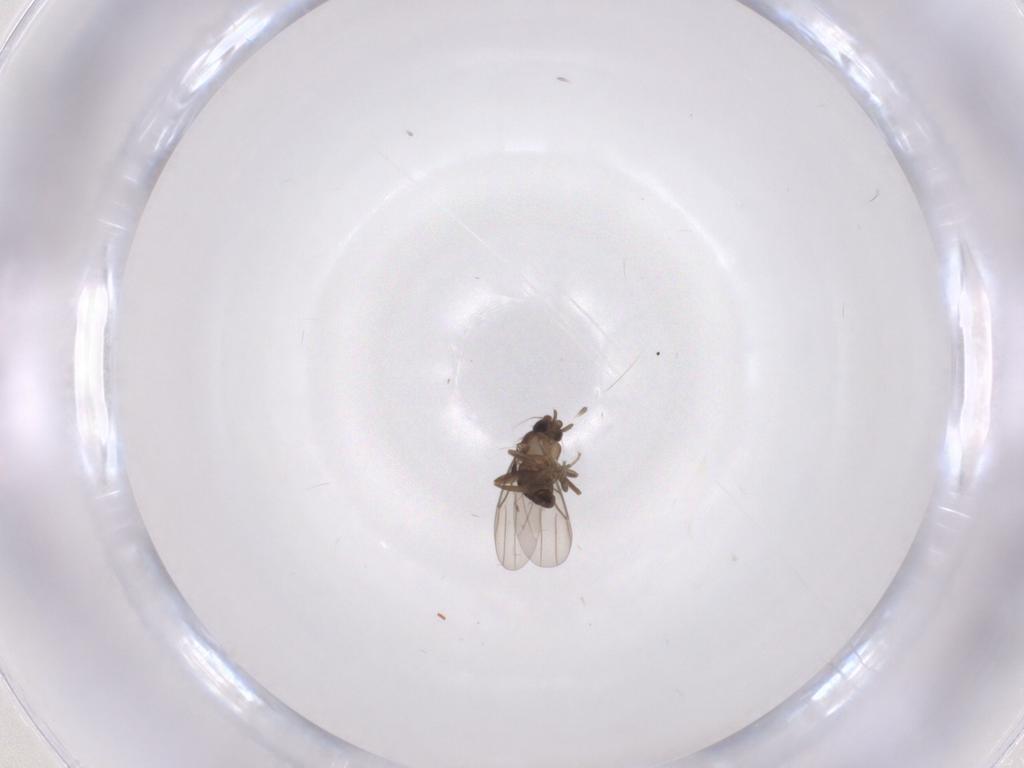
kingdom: Animalia
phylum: Arthropoda
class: Insecta
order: Diptera
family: Phoridae
